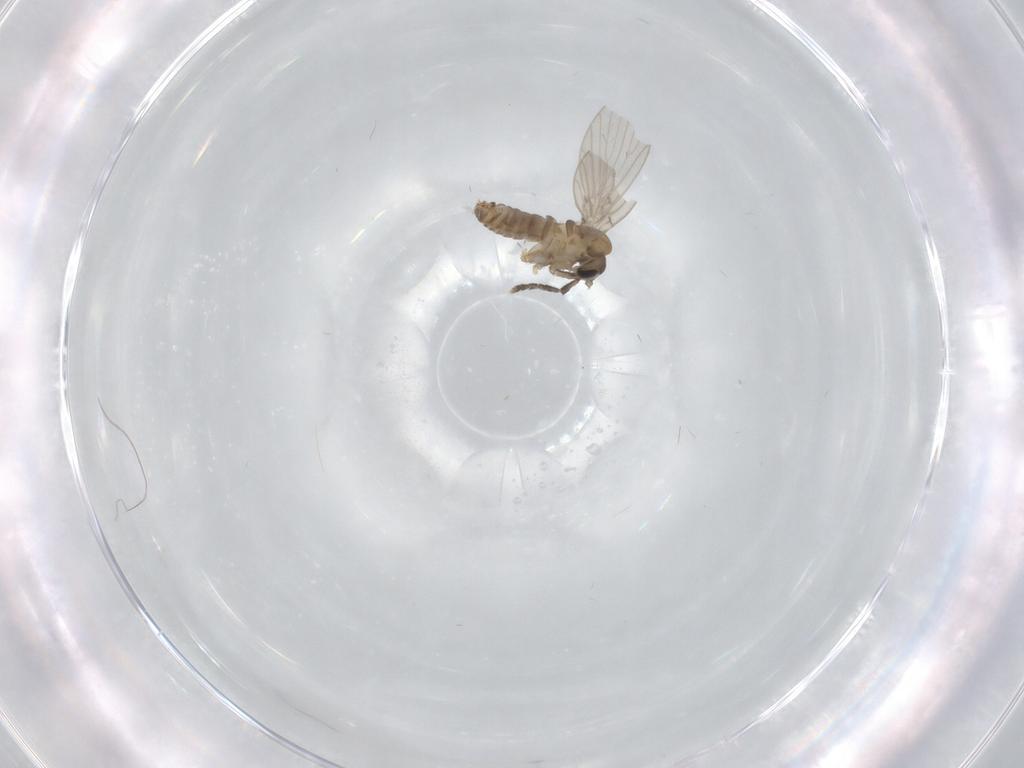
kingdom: Animalia
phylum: Arthropoda
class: Insecta
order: Diptera
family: Psychodidae
